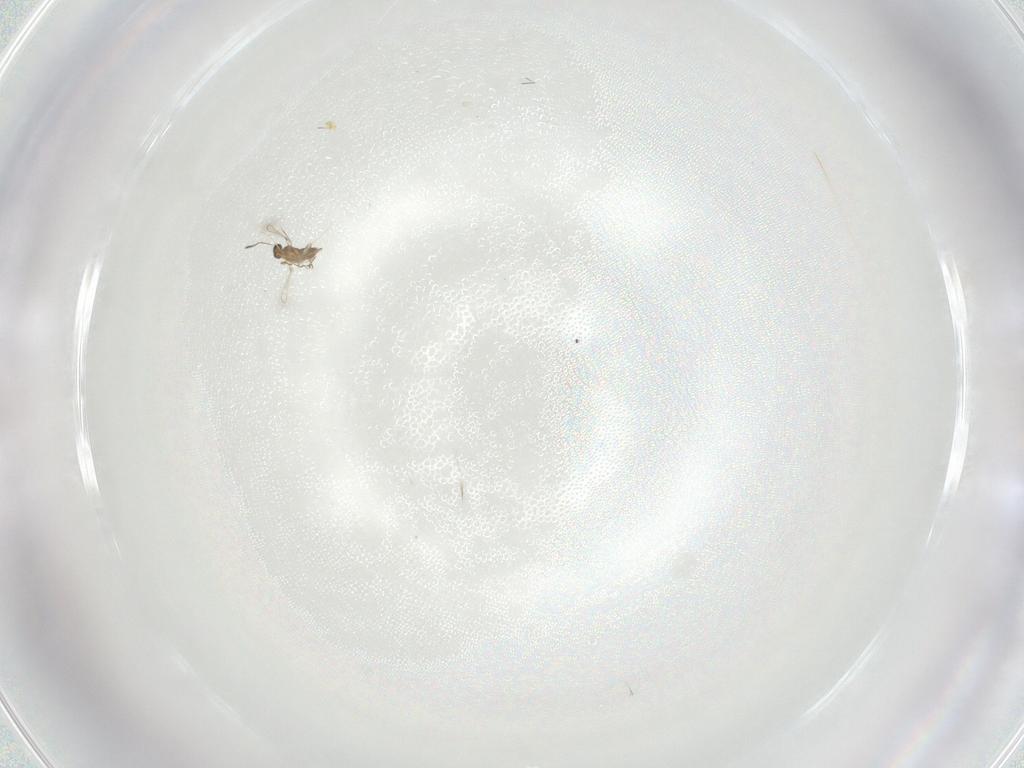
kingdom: Animalia
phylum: Arthropoda
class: Insecta
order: Hymenoptera
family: Mymaridae
